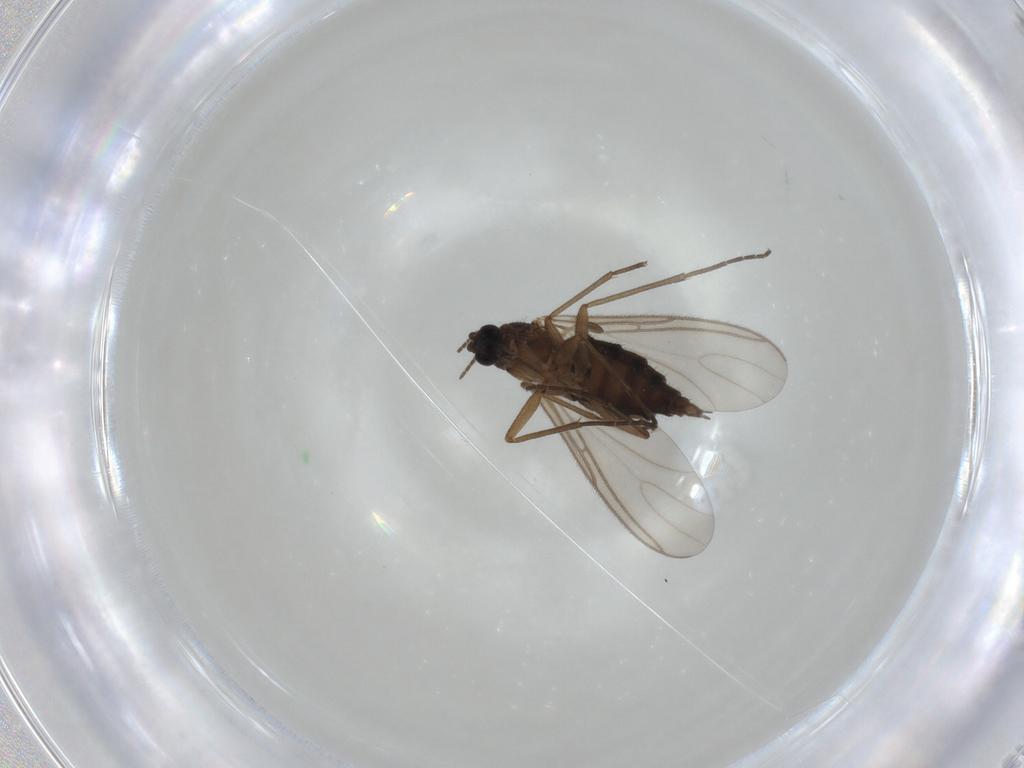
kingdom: Animalia
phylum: Arthropoda
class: Insecta
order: Diptera
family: Sciaridae
